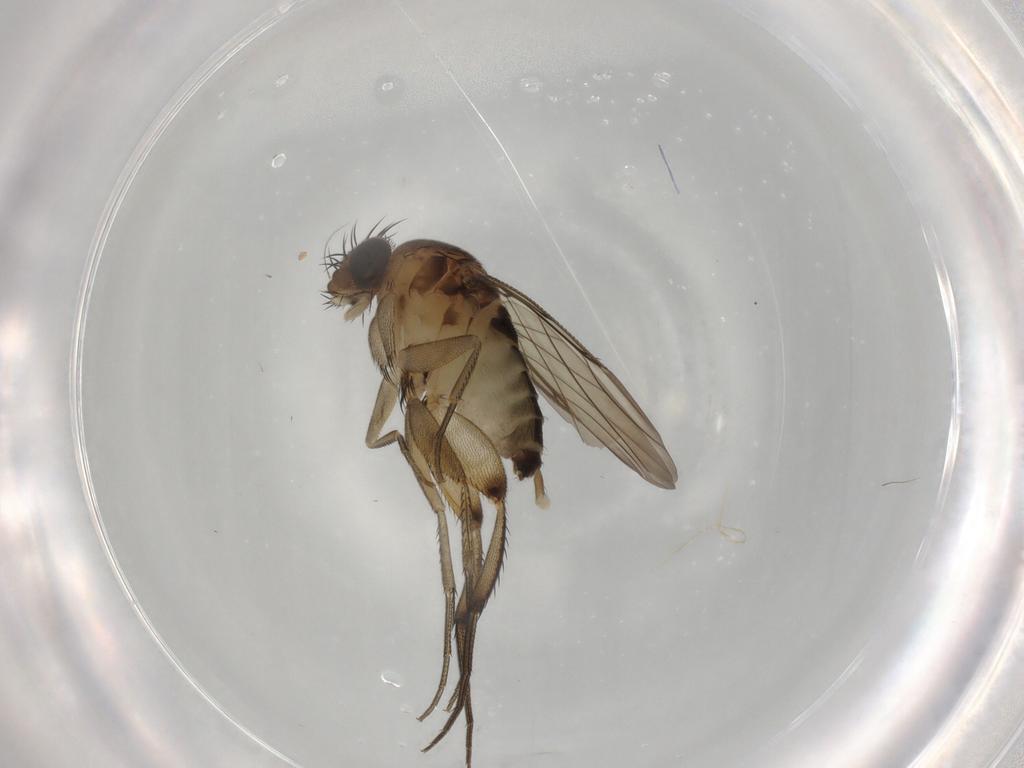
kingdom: Animalia
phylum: Arthropoda
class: Insecta
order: Diptera
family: Phoridae
